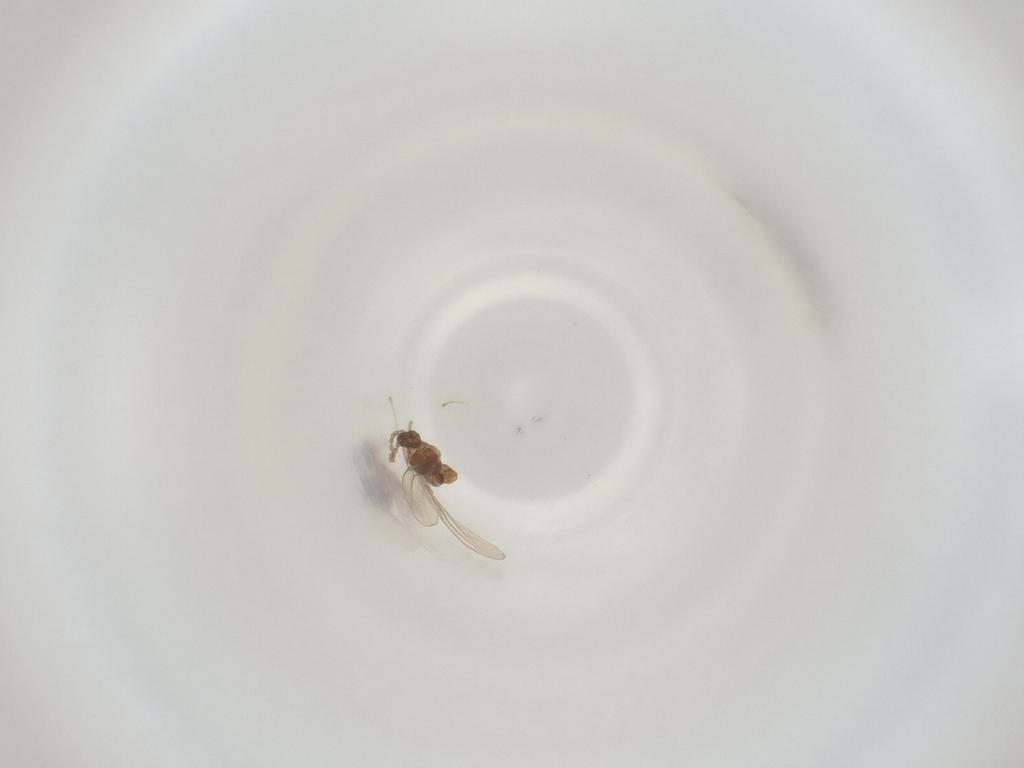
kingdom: Animalia
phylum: Arthropoda
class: Insecta
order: Diptera
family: Cecidomyiidae
